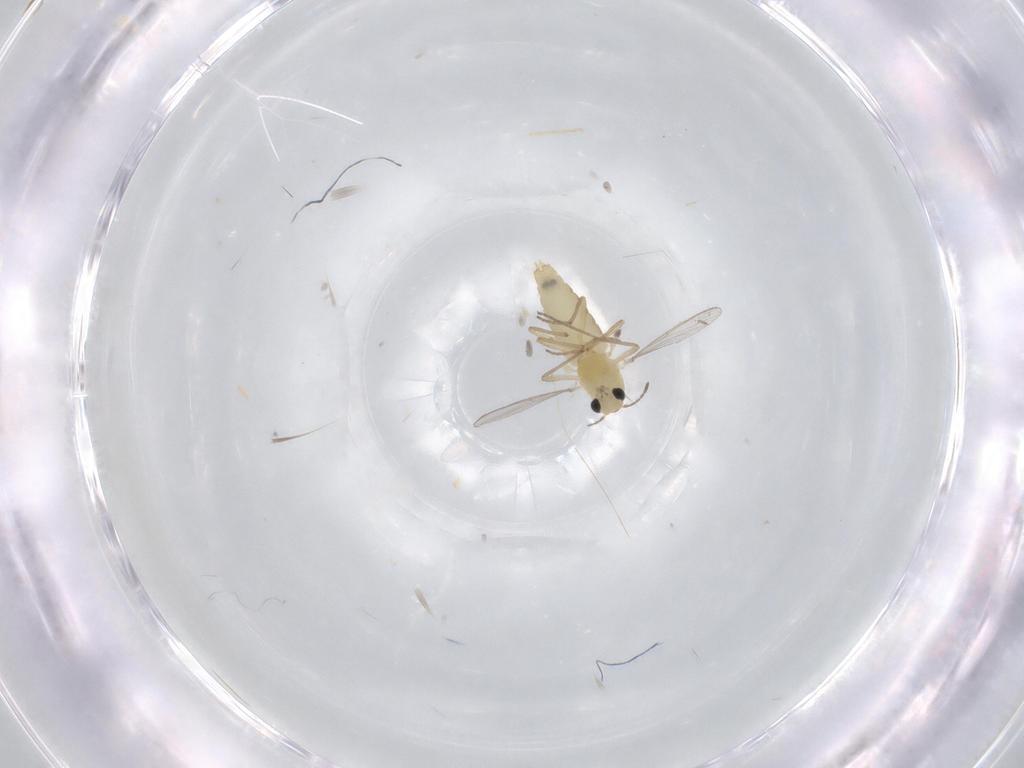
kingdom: Animalia
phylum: Arthropoda
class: Insecta
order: Diptera
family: Chironomidae
